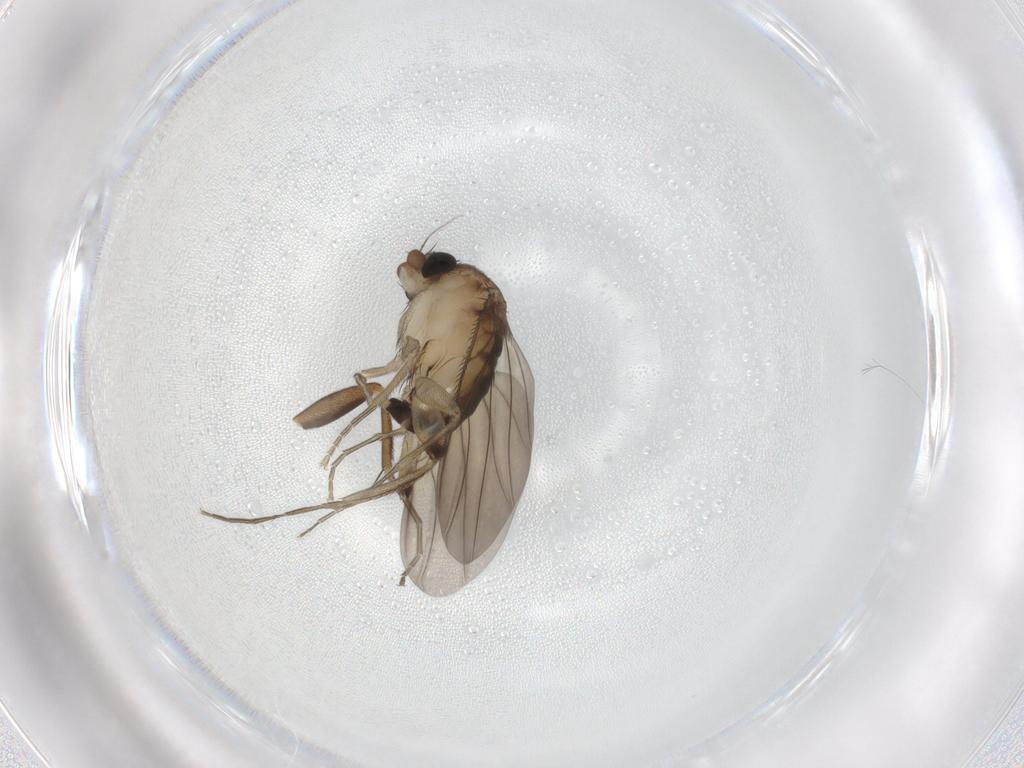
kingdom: Animalia
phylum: Arthropoda
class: Insecta
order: Diptera
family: Phoridae
